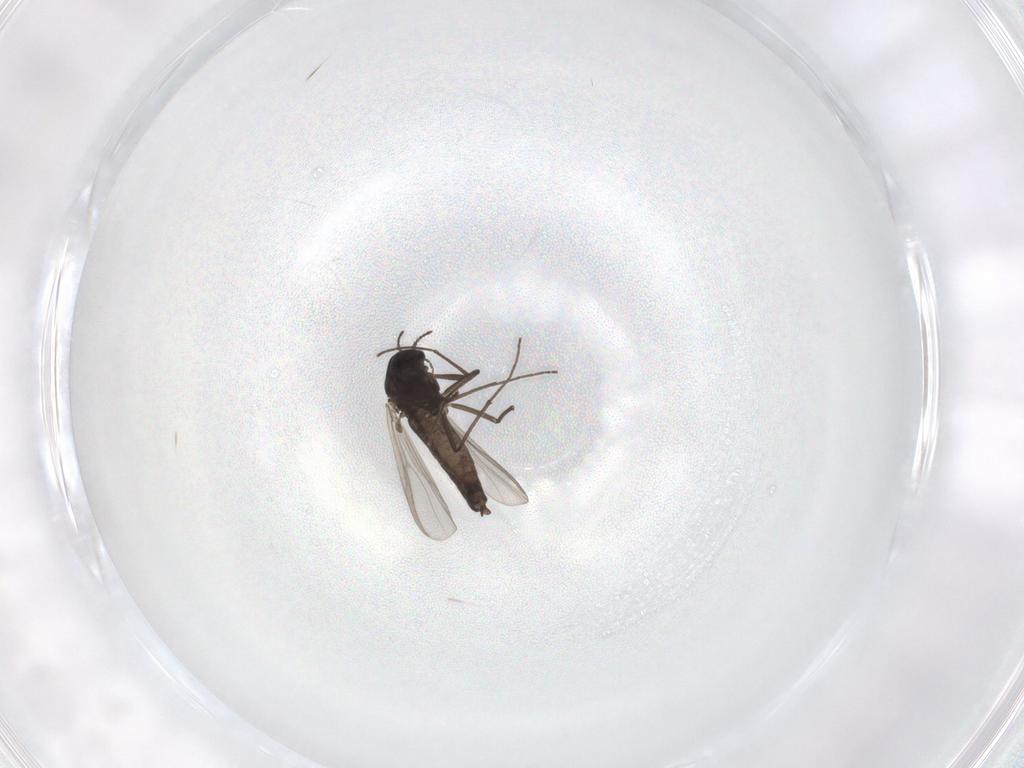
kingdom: Animalia
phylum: Arthropoda
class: Insecta
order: Diptera
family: Chironomidae
